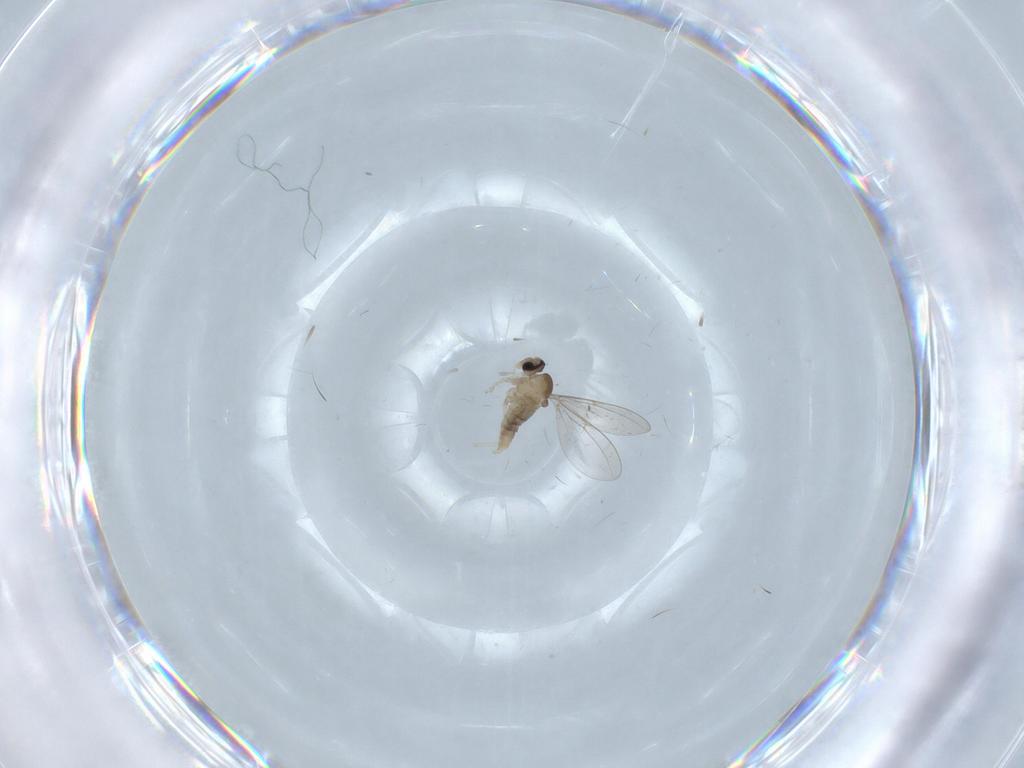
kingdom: Animalia
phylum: Arthropoda
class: Insecta
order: Diptera
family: Cecidomyiidae
